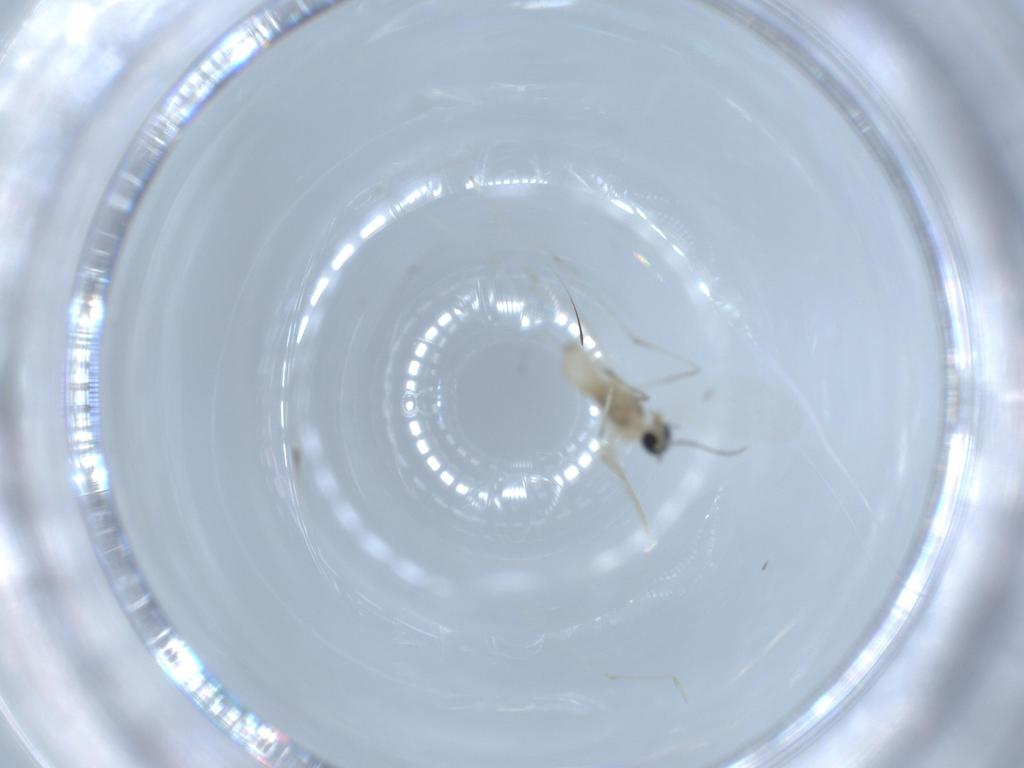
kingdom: Animalia
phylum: Arthropoda
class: Insecta
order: Diptera
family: Cecidomyiidae
